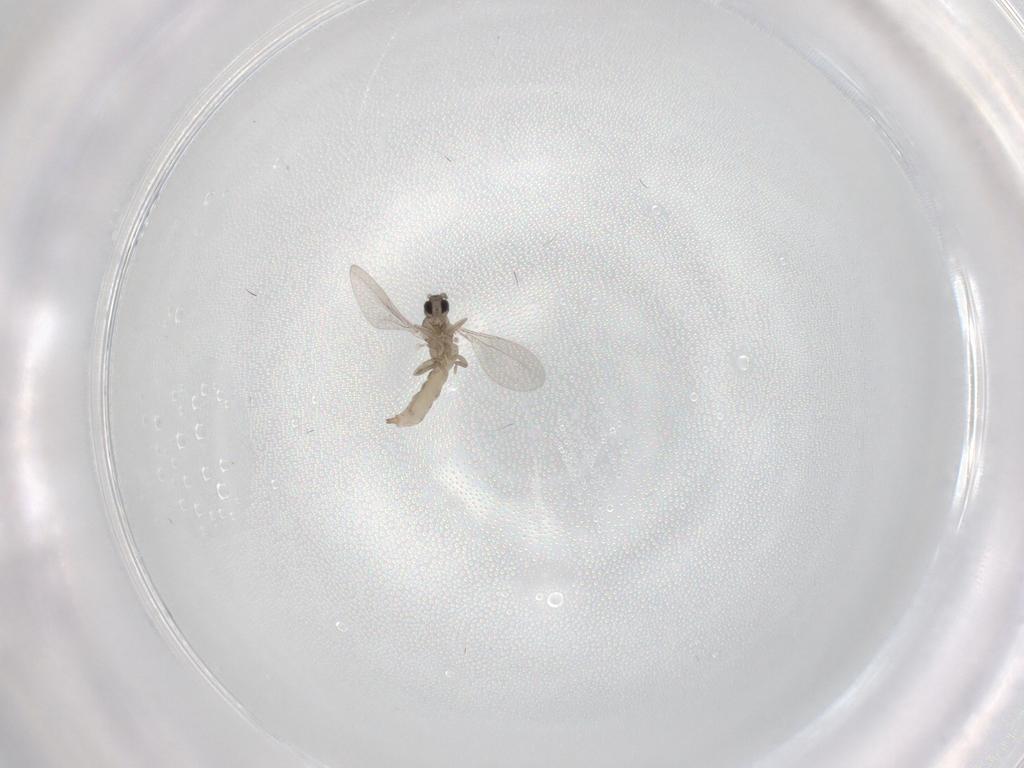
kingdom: Animalia
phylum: Arthropoda
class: Insecta
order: Diptera
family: Cecidomyiidae
